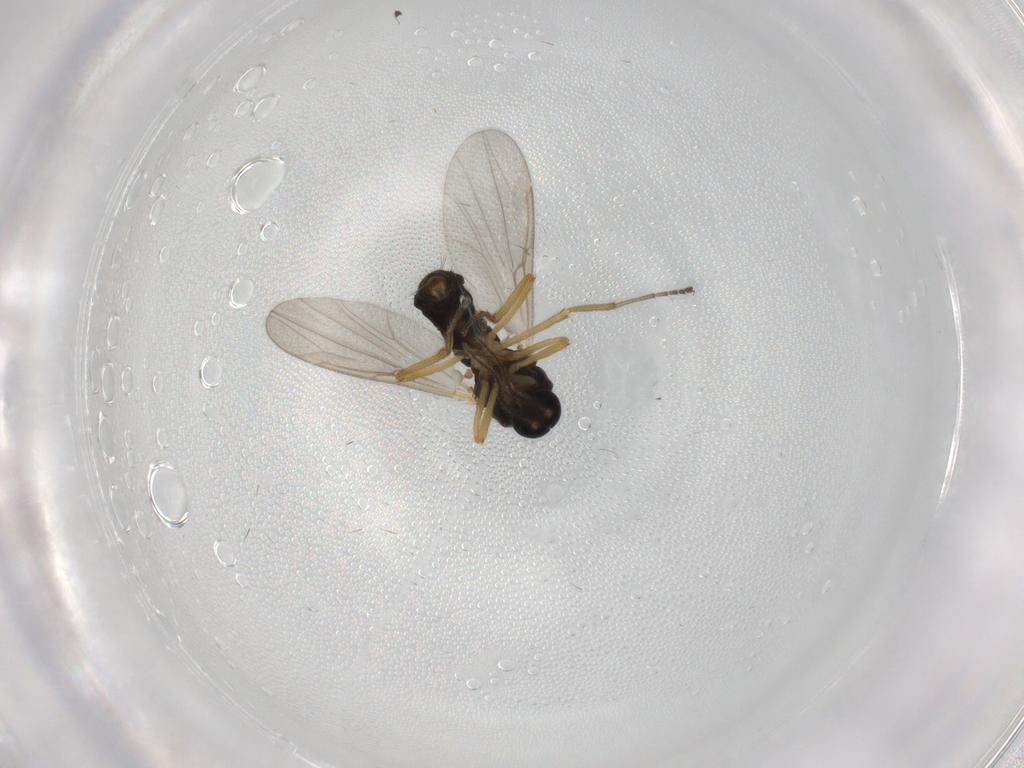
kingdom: Animalia
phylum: Arthropoda
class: Insecta
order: Diptera
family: Ceratopogonidae
